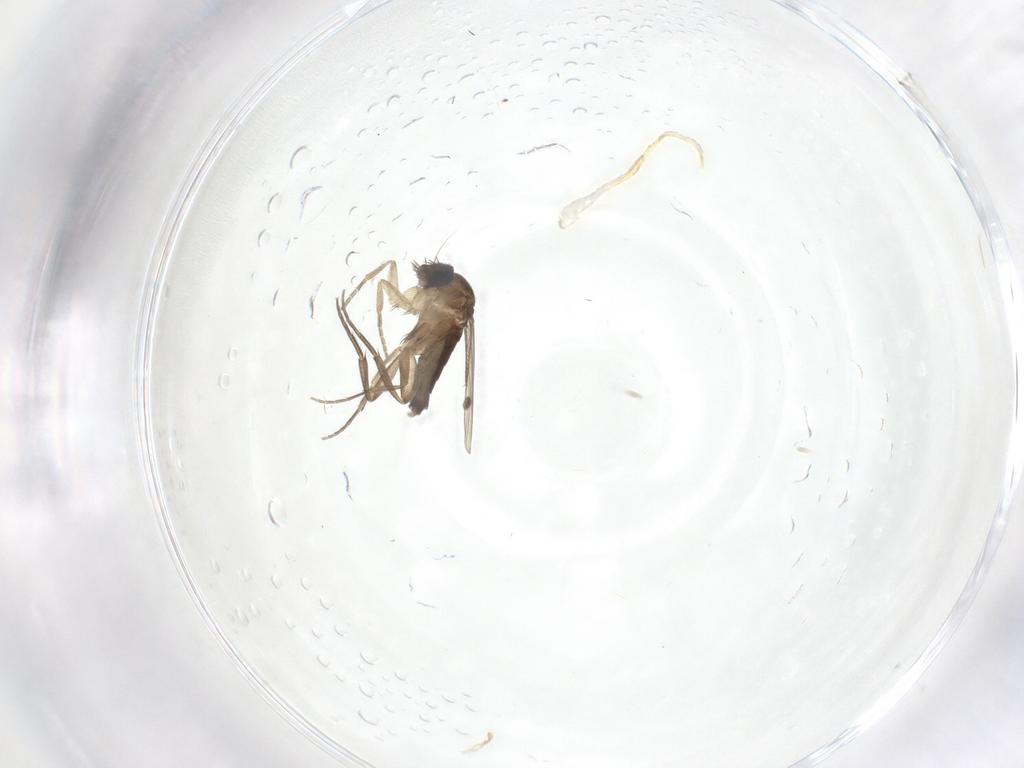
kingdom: Animalia
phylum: Arthropoda
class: Insecta
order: Diptera
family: Phoridae
